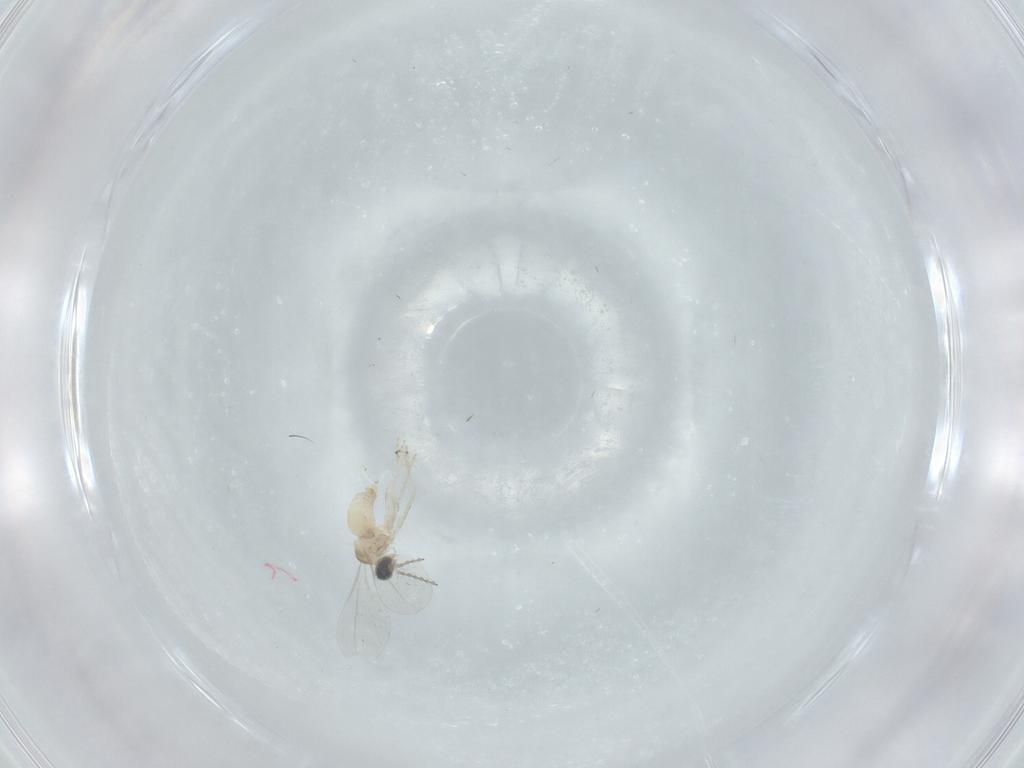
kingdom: Animalia
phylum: Arthropoda
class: Insecta
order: Diptera
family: Cecidomyiidae
